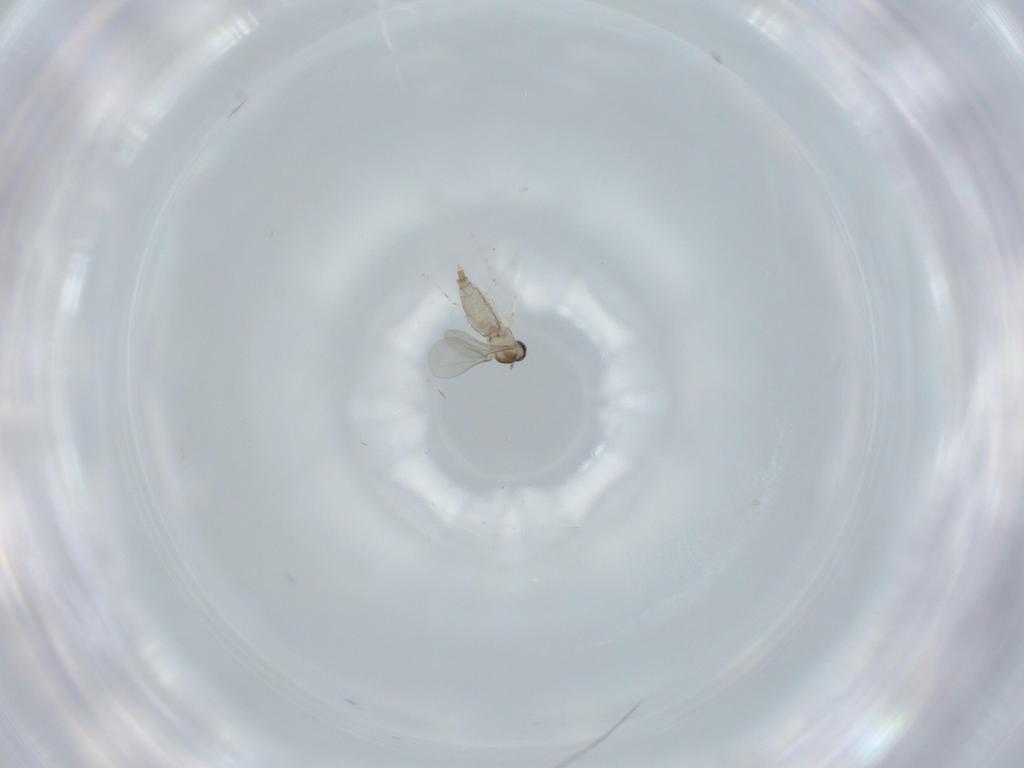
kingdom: Animalia
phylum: Arthropoda
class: Insecta
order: Diptera
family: Cecidomyiidae
